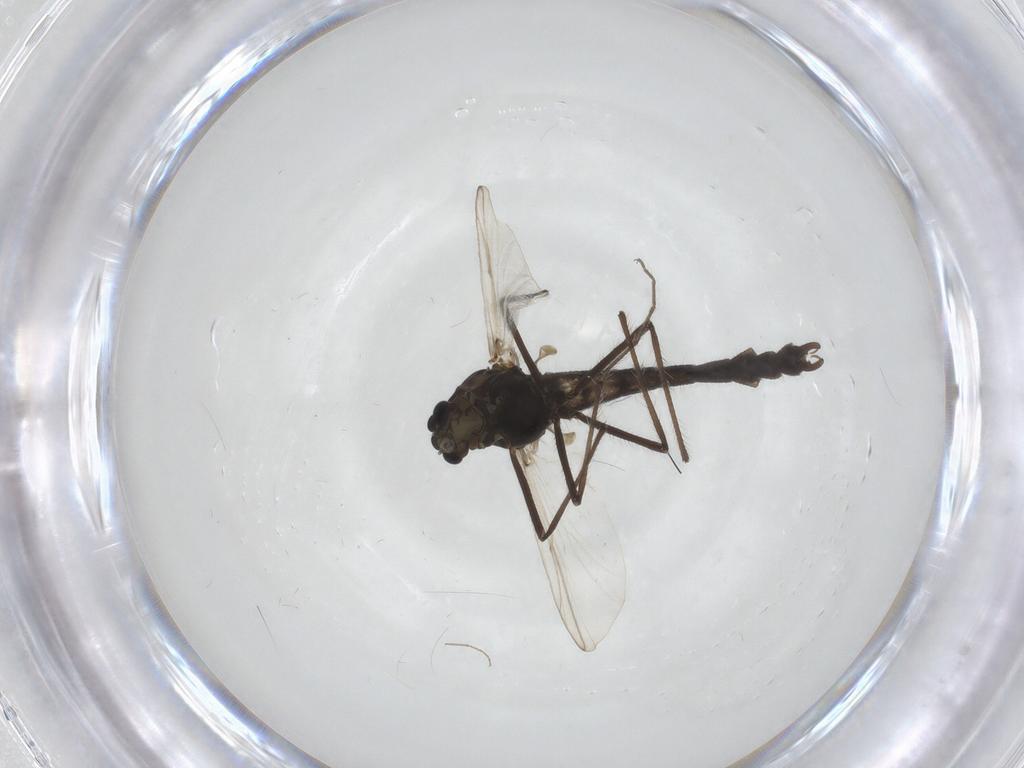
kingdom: Animalia
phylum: Arthropoda
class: Insecta
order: Diptera
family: Chironomidae
